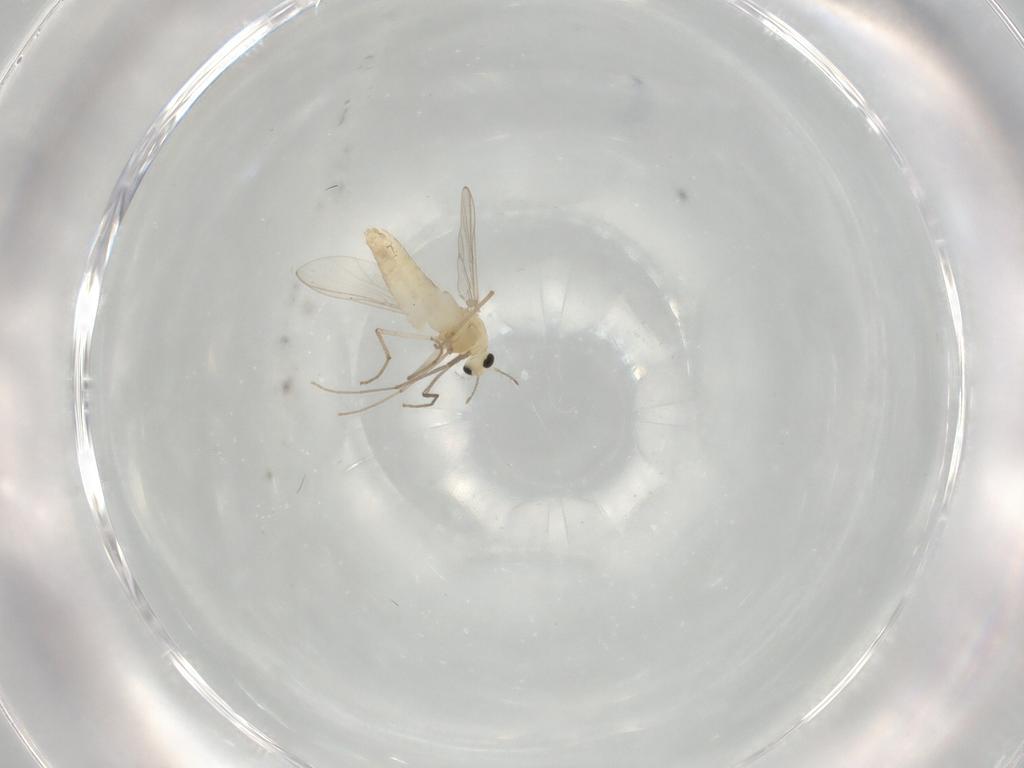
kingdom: Animalia
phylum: Arthropoda
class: Insecta
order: Diptera
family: Chironomidae
